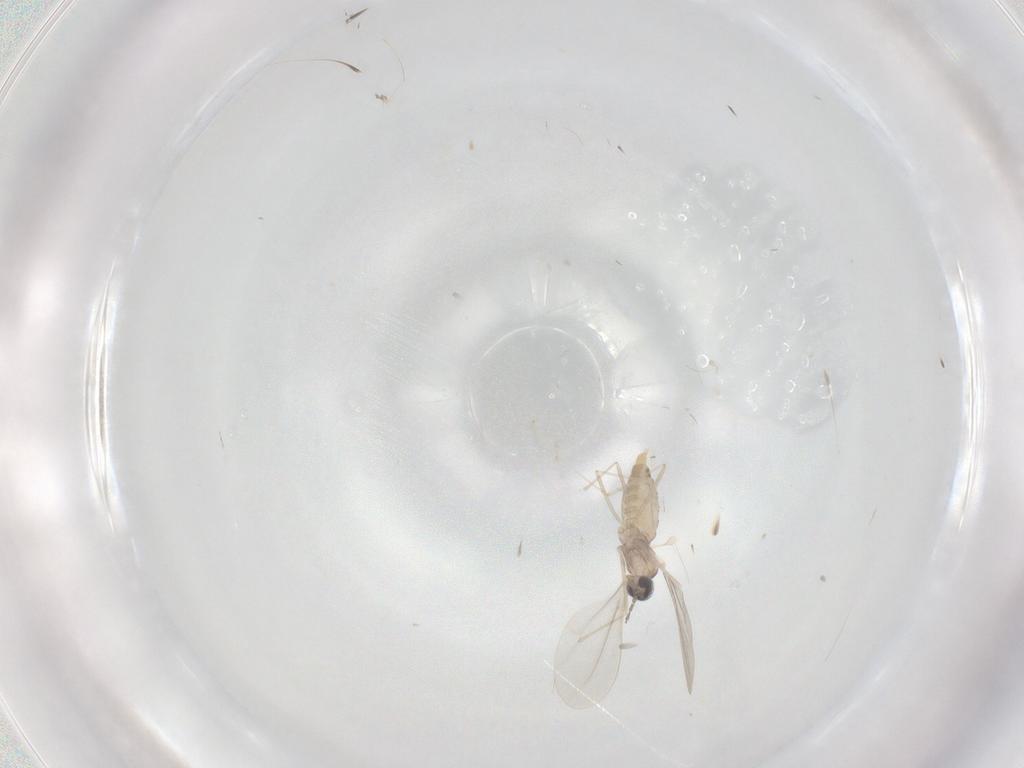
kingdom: Animalia
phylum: Arthropoda
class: Insecta
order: Diptera
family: Cecidomyiidae
